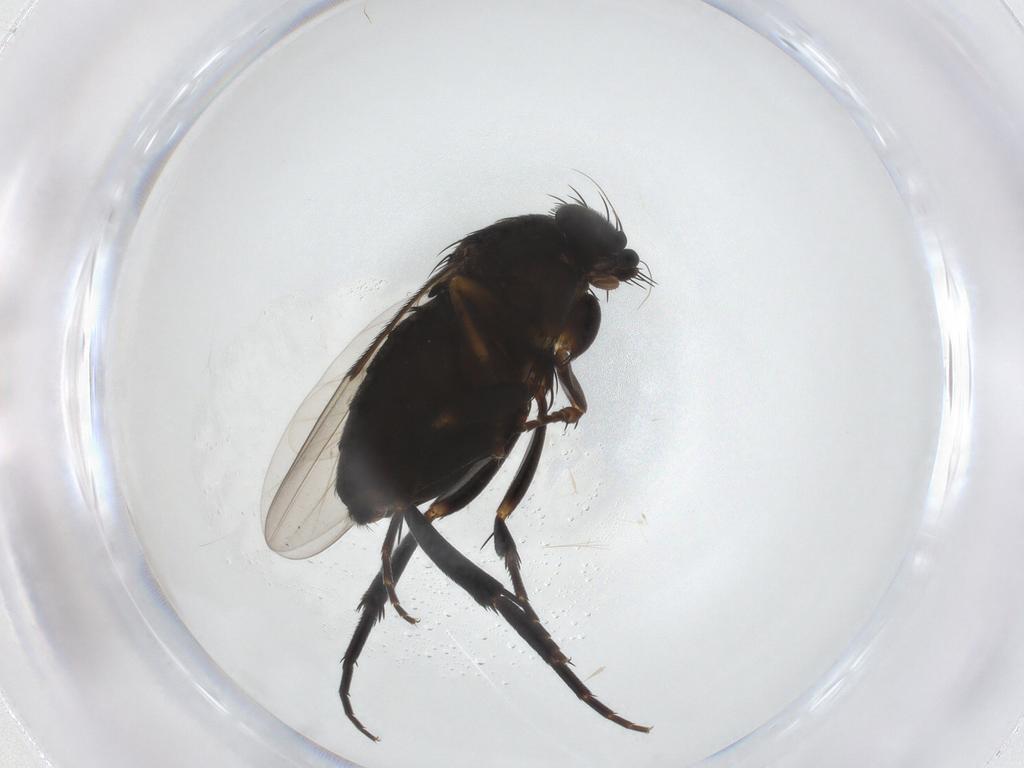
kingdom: Animalia
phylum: Arthropoda
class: Insecta
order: Diptera
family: Phoridae
